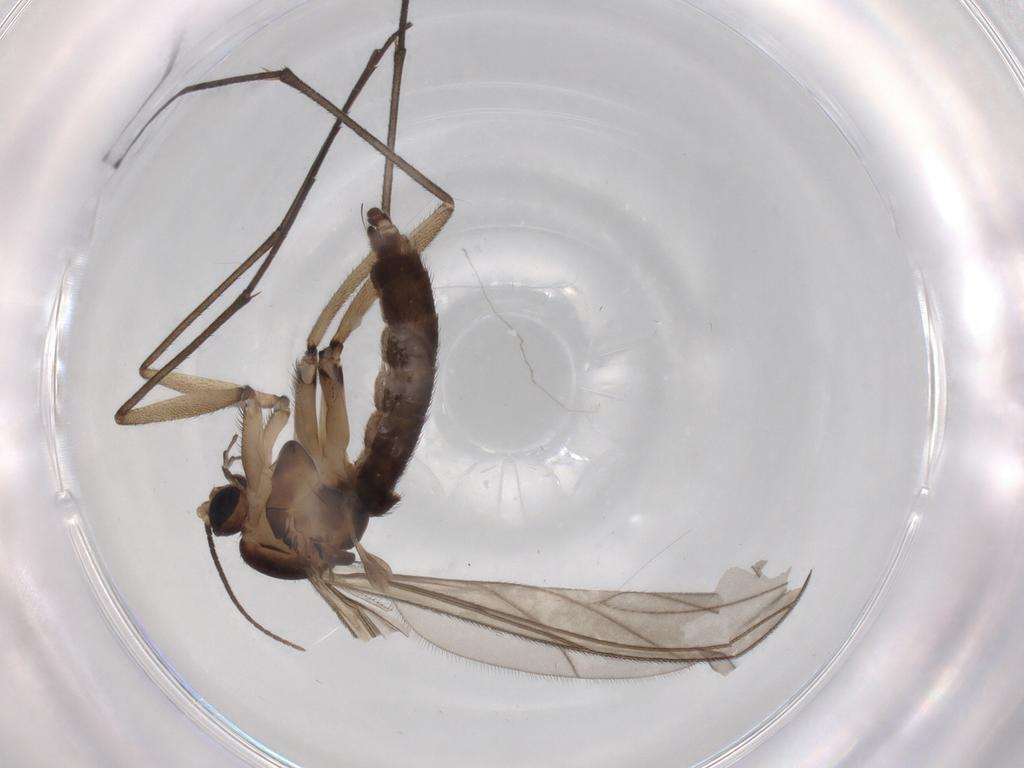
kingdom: Animalia
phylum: Arthropoda
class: Insecta
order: Diptera
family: Sciaridae
